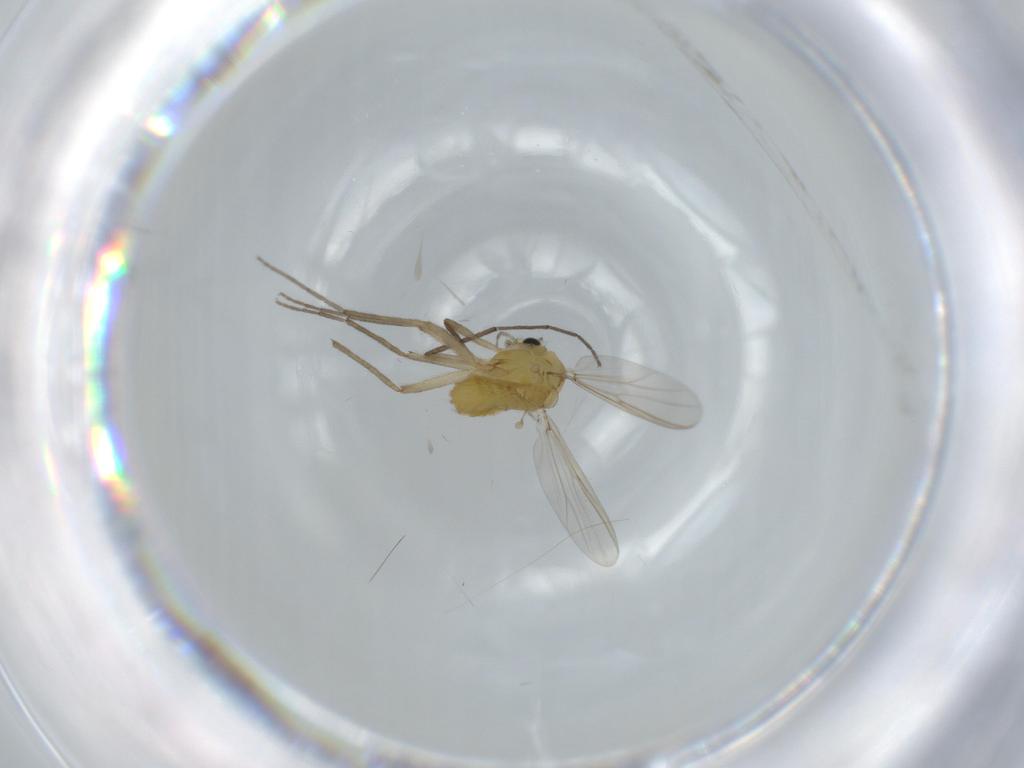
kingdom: Animalia
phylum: Arthropoda
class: Insecta
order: Diptera
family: Chironomidae
